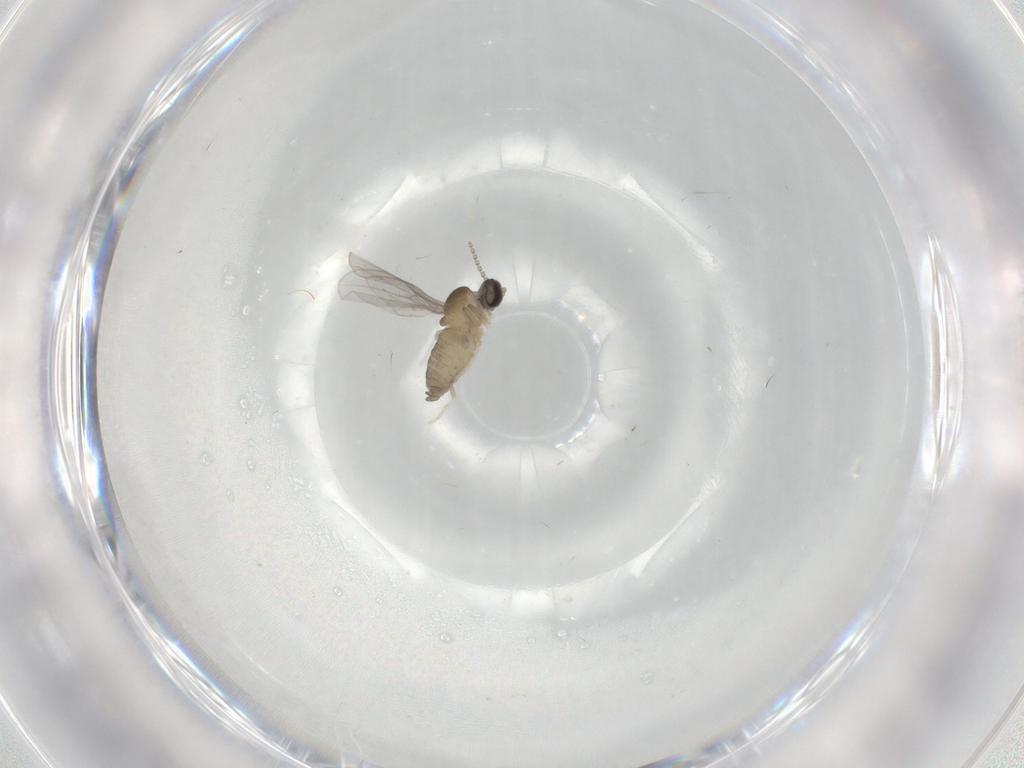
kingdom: Animalia
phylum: Arthropoda
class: Insecta
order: Diptera
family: Cecidomyiidae
